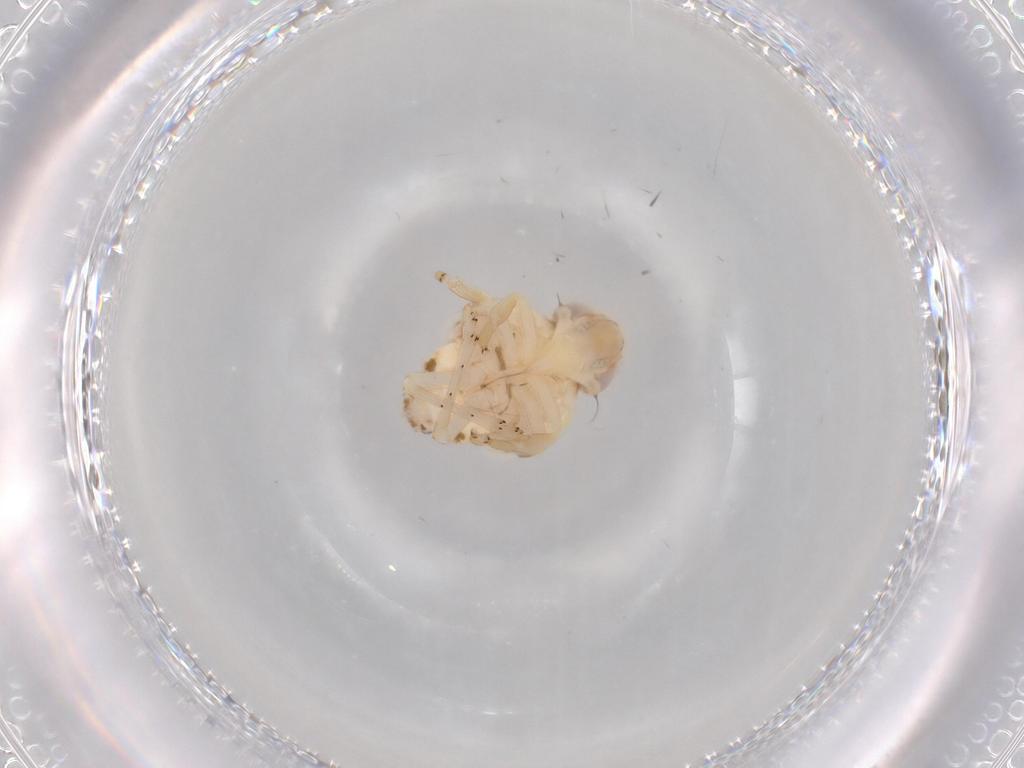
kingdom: Animalia
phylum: Arthropoda
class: Insecta
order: Hemiptera
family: Nogodinidae
